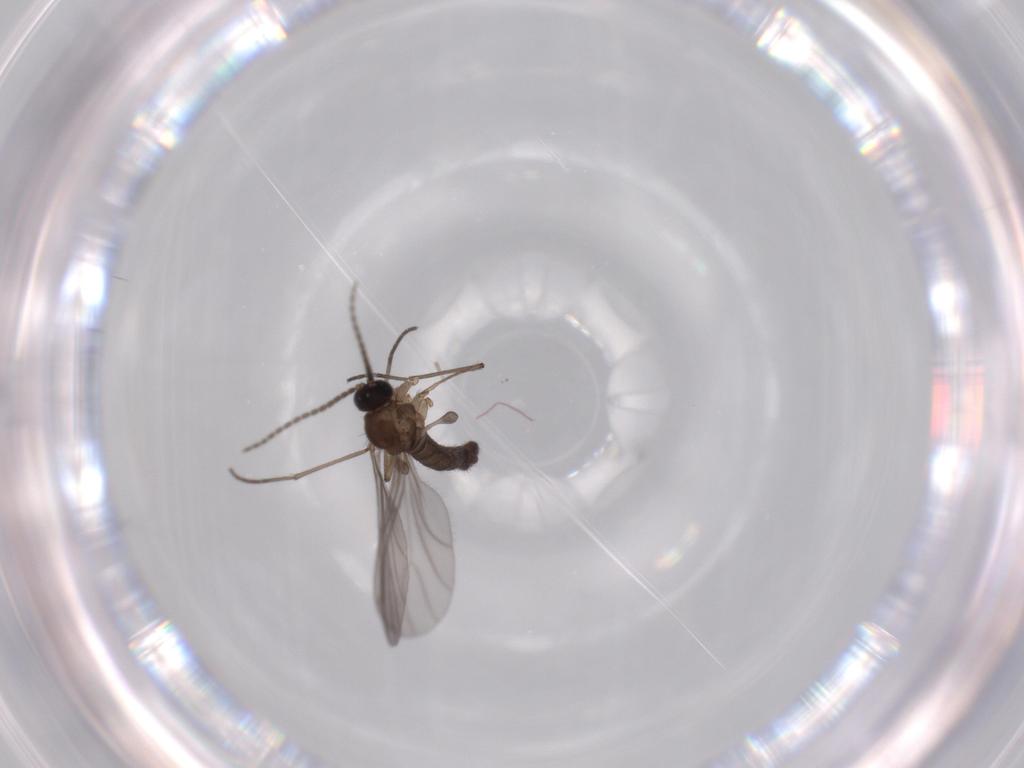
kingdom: Animalia
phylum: Arthropoda
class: Insecta
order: Diptera
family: Sciaridae
